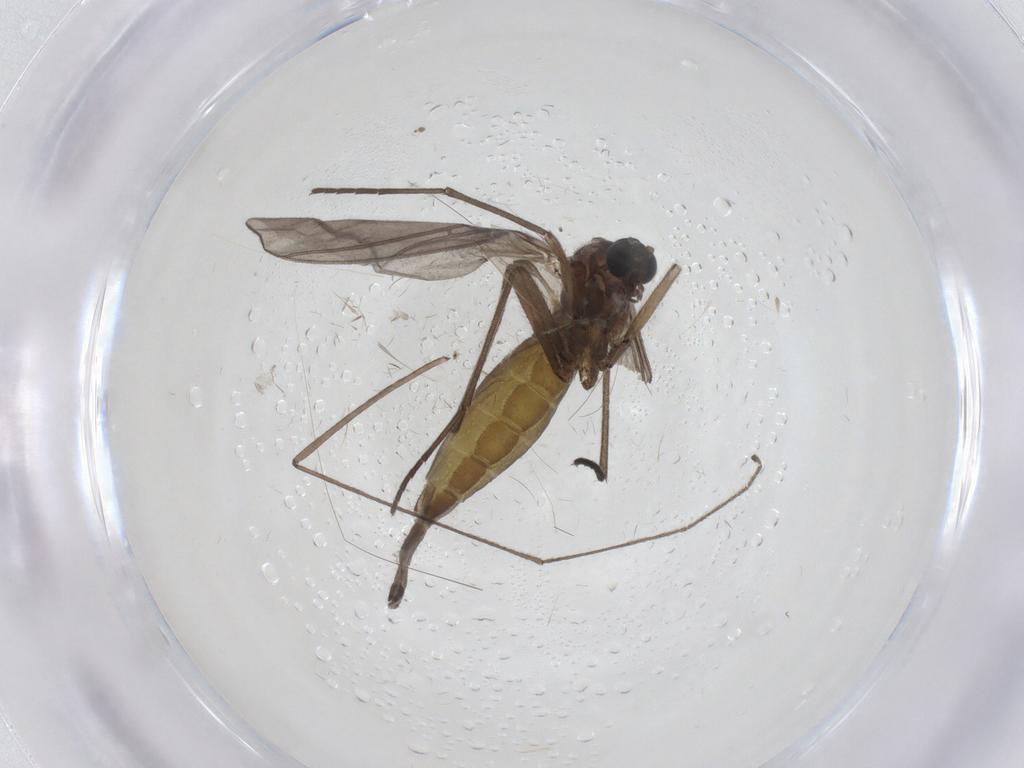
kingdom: Animalia
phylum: Arthropoda
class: Insecta
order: Diptera
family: Ceratopogonidae
